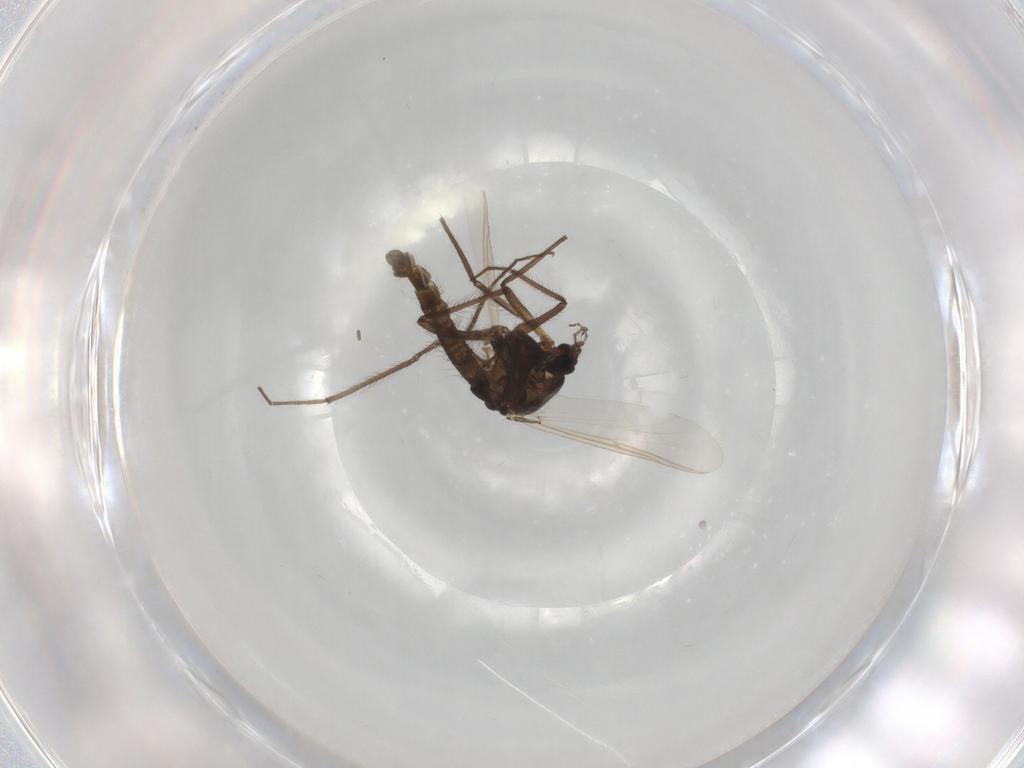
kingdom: Animalia
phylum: Arthropoda
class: Insecta
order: Diptera
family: Chironomidae
